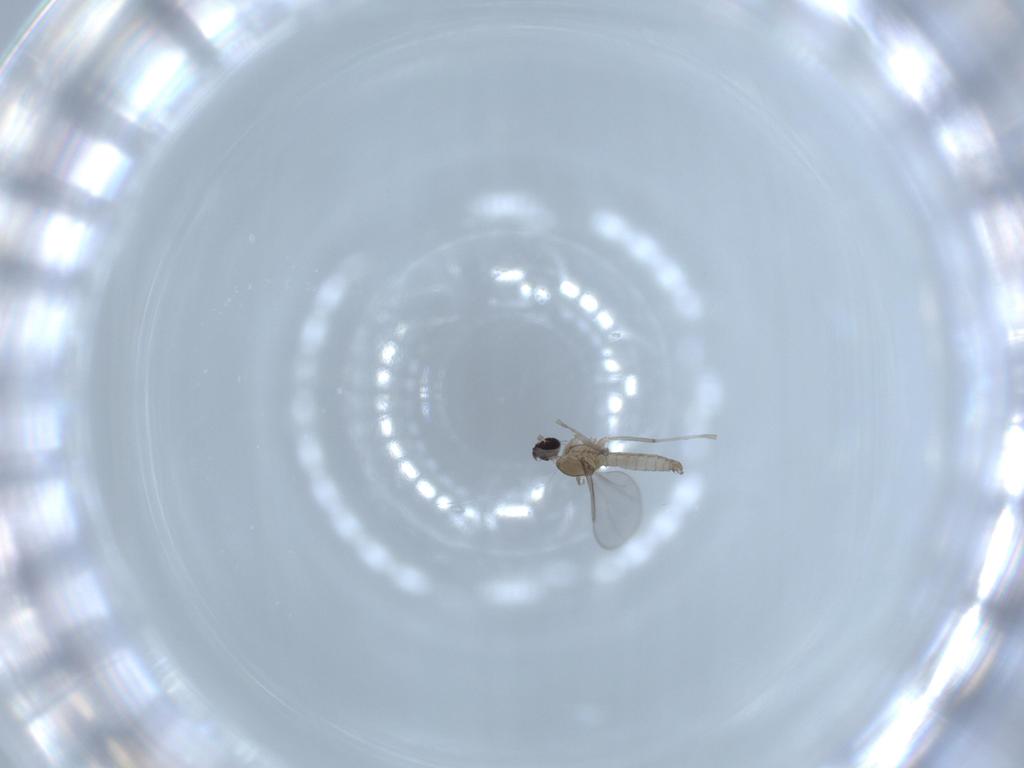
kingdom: Animalia
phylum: Arthropoda
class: Insecta
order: Diptera
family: Cecidomyiidae
